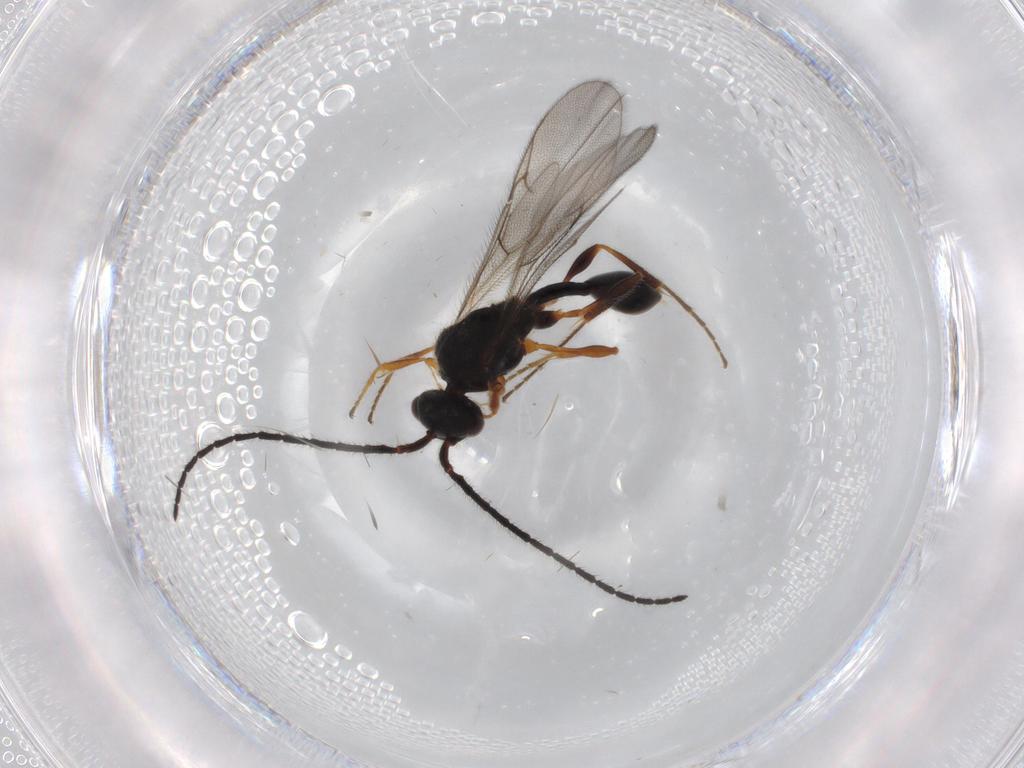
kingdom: Animalia
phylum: Arthropoda
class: Insecta
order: Hymenoptera
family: Diapriidae
